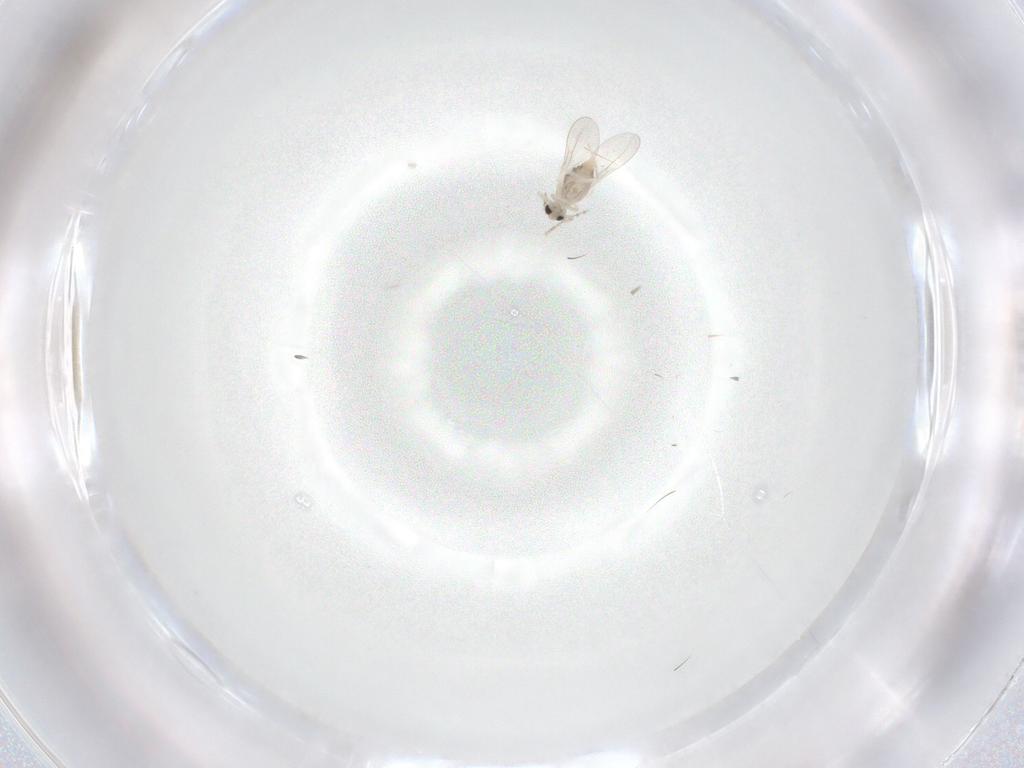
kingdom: Animalia
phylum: Arthropoda
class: Insecta
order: Diptera
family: Cecidomyiidae
